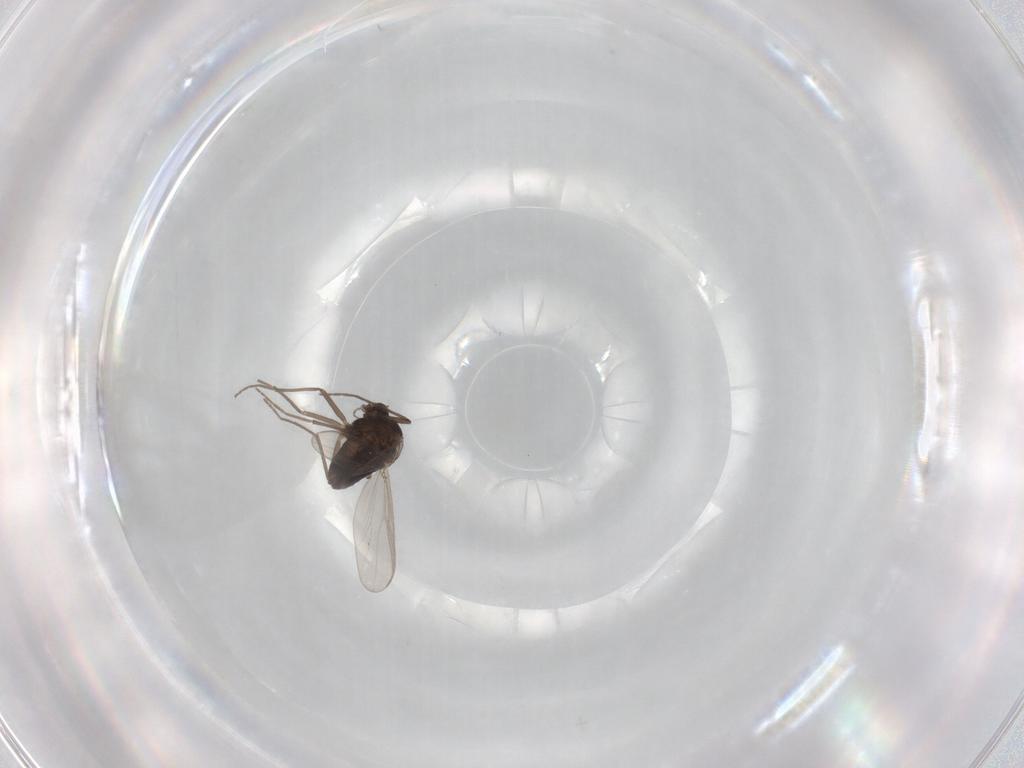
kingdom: Animalia
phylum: Arthropoda
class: Insecta
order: Diptera
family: Chironomidae
